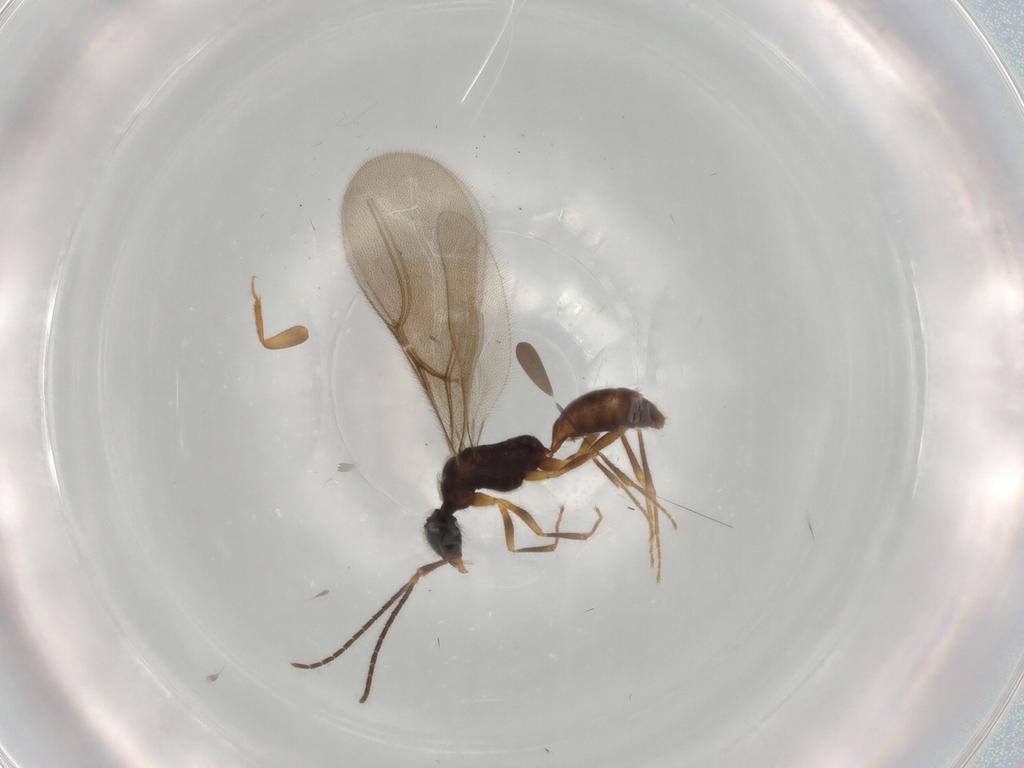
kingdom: Animalia
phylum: Arthropoda
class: Insecta
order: Hymenoptera
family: Bethylidae
